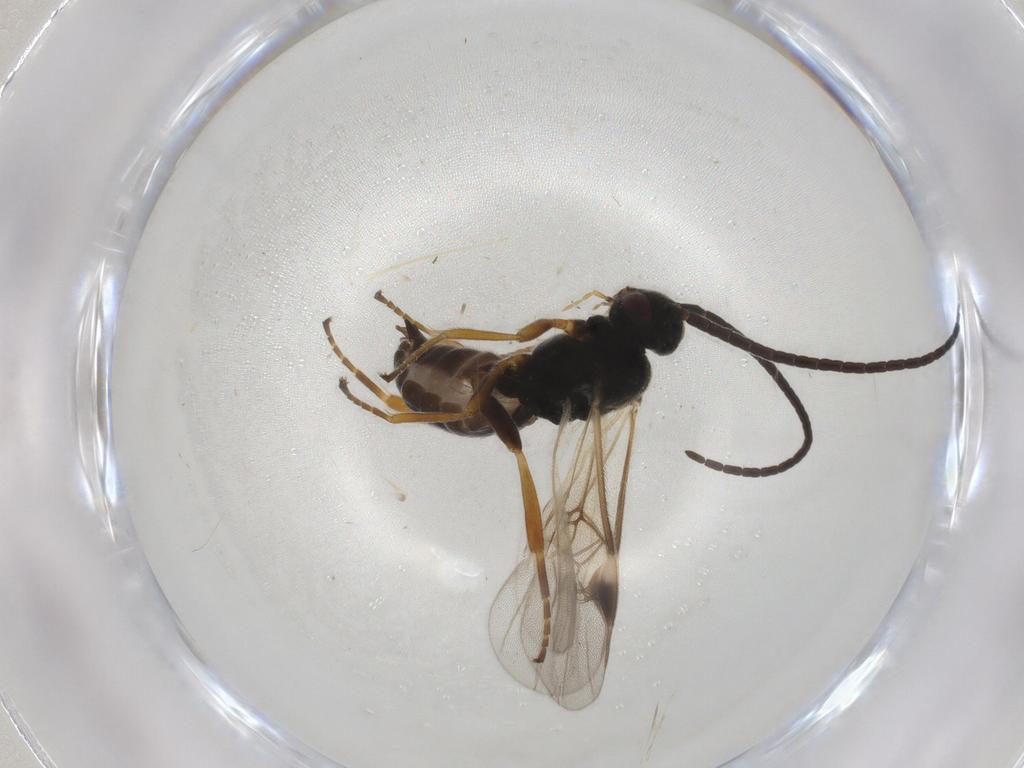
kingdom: Animalia
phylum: Arthropoda
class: Insecta
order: Hymenoptera
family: Braconidae
